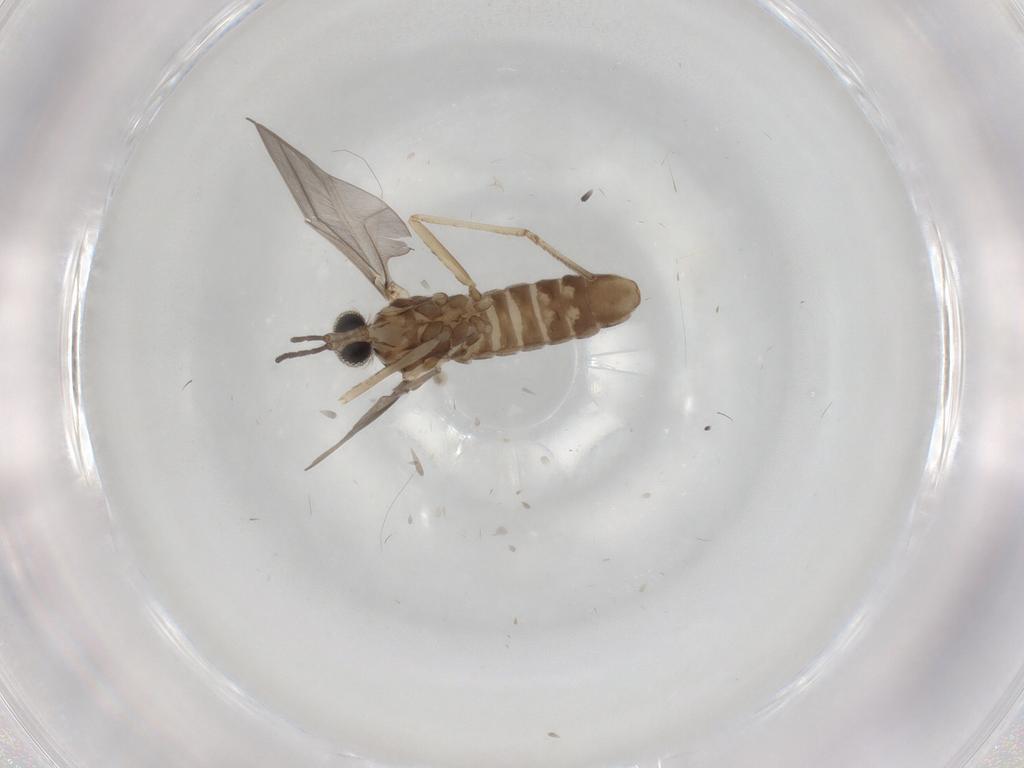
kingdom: Animalia
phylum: Arthropoda
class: Insecta
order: Diptera
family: Cecidomyiidae
